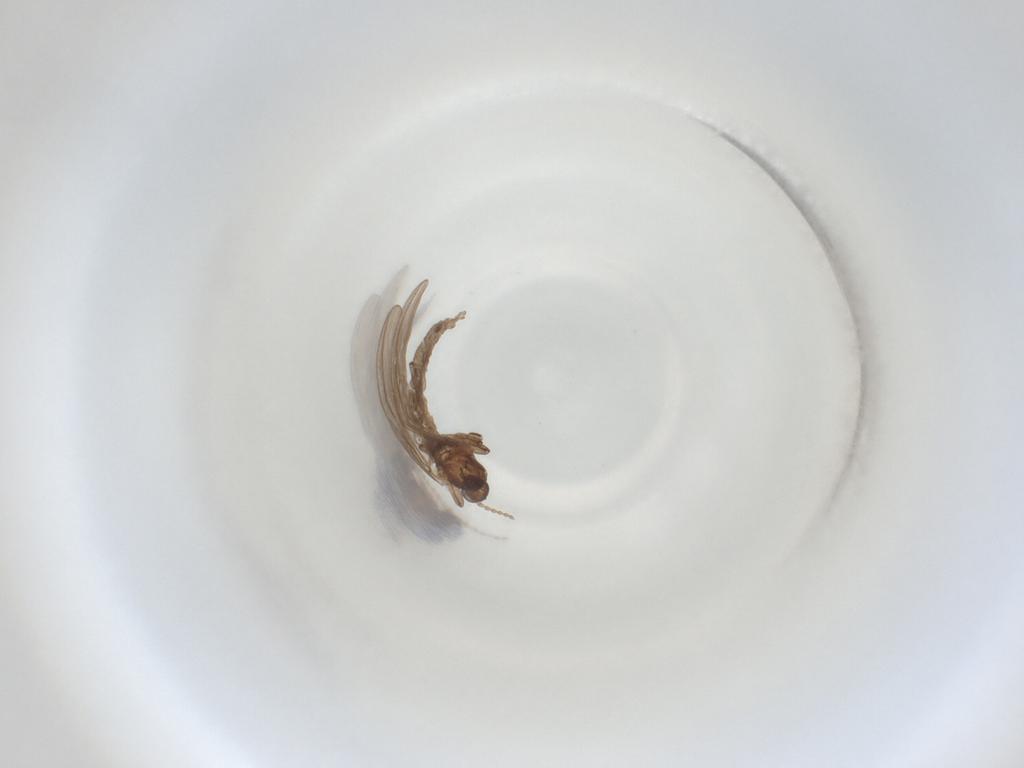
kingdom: Animalia
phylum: Arthropoda
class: Insecta
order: Diptera
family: Cecidomyiidae
